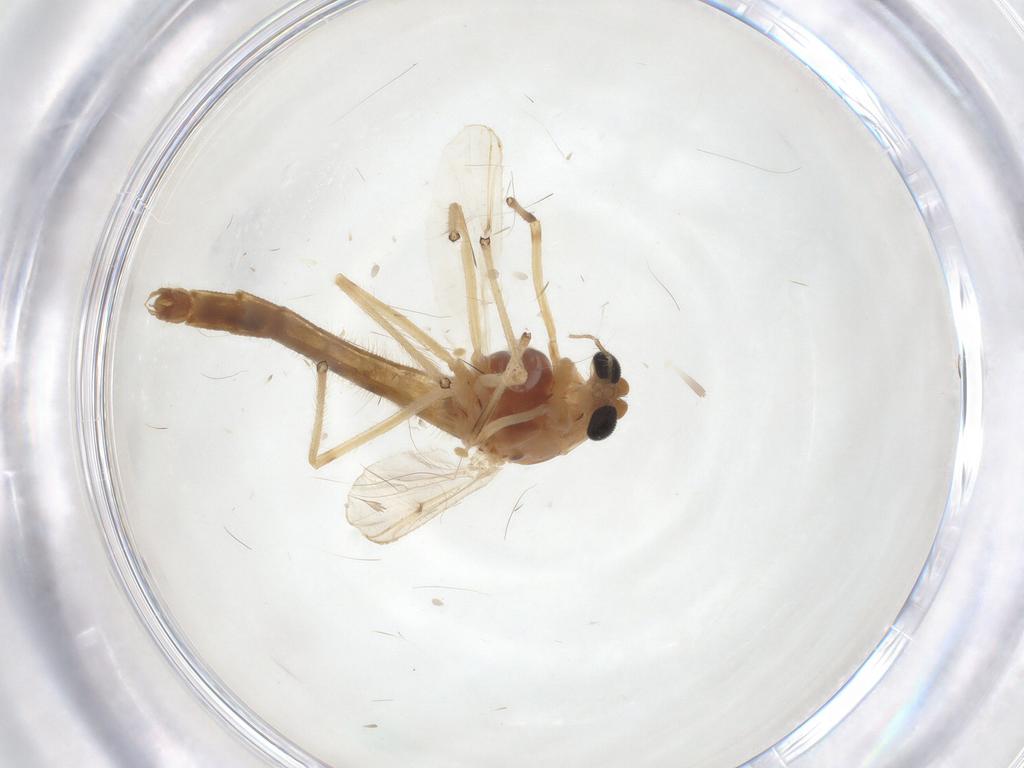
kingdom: Animalia
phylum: Arthropoda
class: Insecta
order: Diptera
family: Chironomidae
